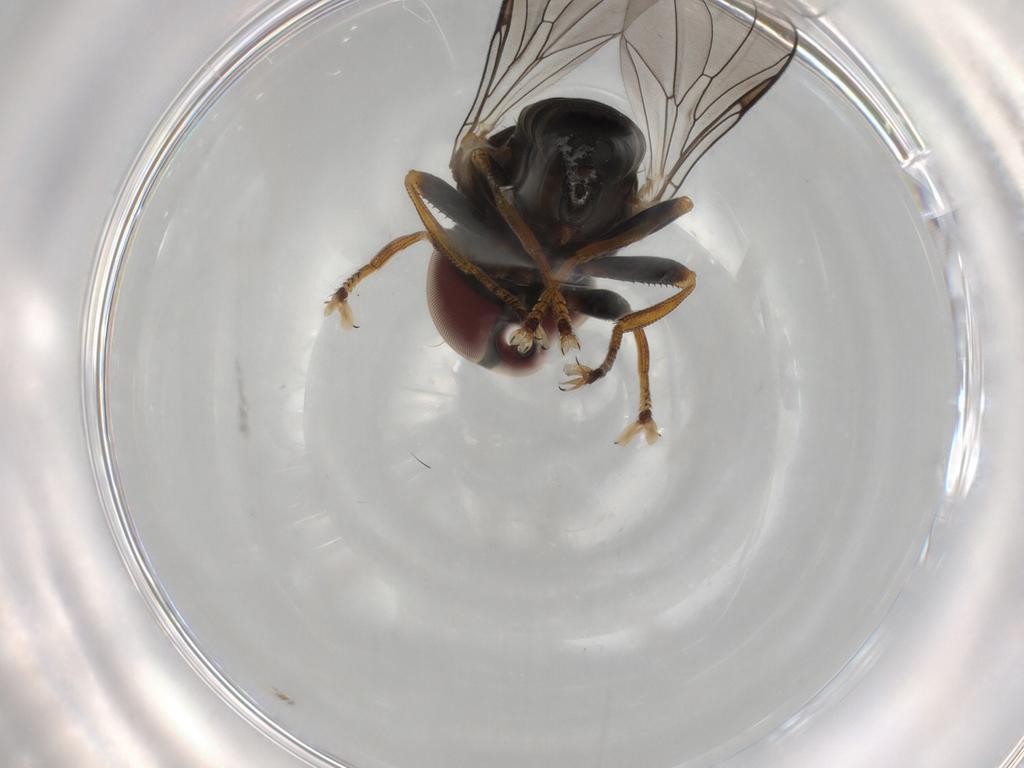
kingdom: Animalia
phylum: Arthropoda
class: Insecta
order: Diptera
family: Pipunculidae
